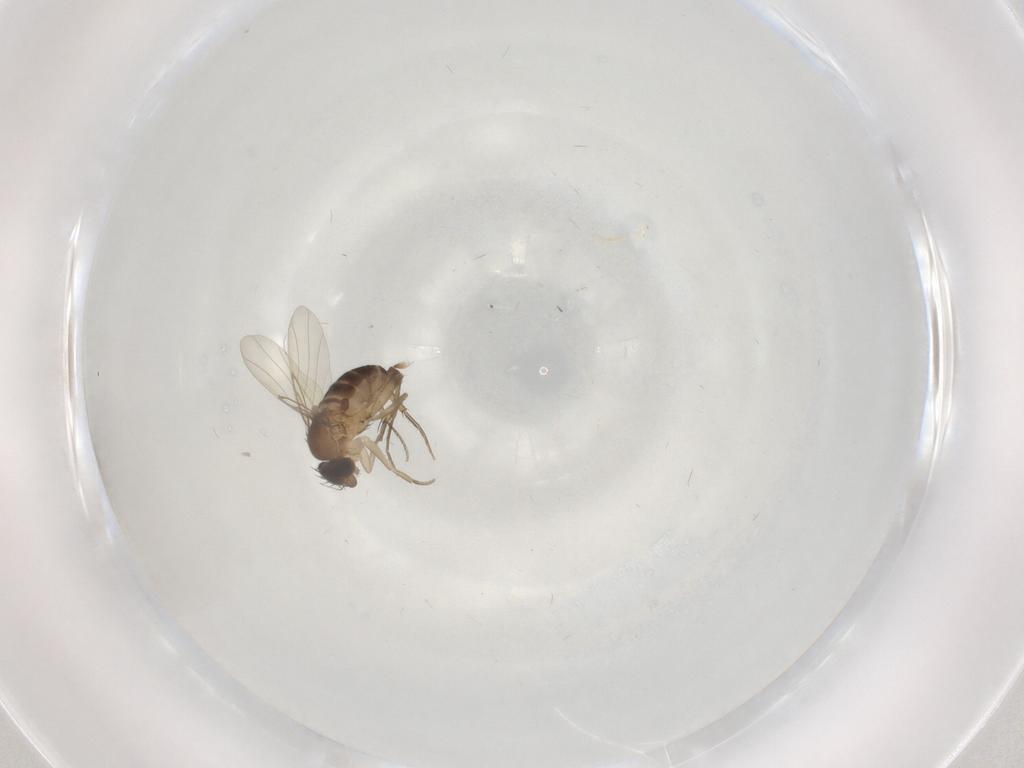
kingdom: Animalia
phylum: Arthropoda
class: Insecta
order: Diptera
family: Phoridae
